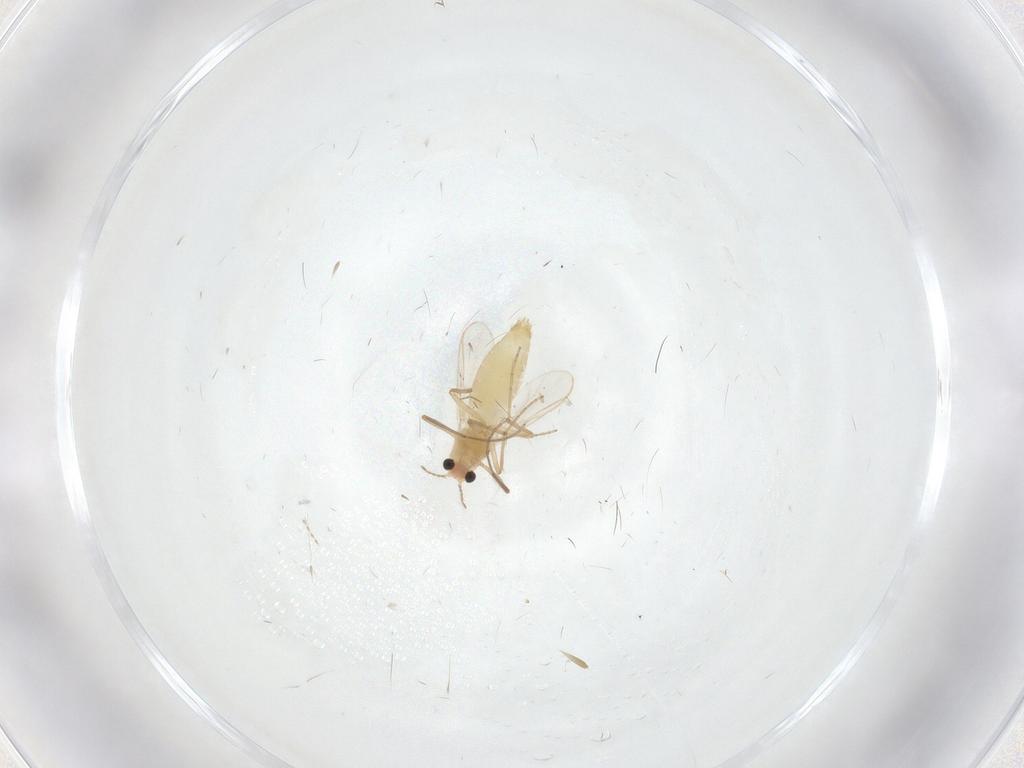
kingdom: Animalia
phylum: Arthropoda
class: Insecta
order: Diptera
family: Chironomidae
